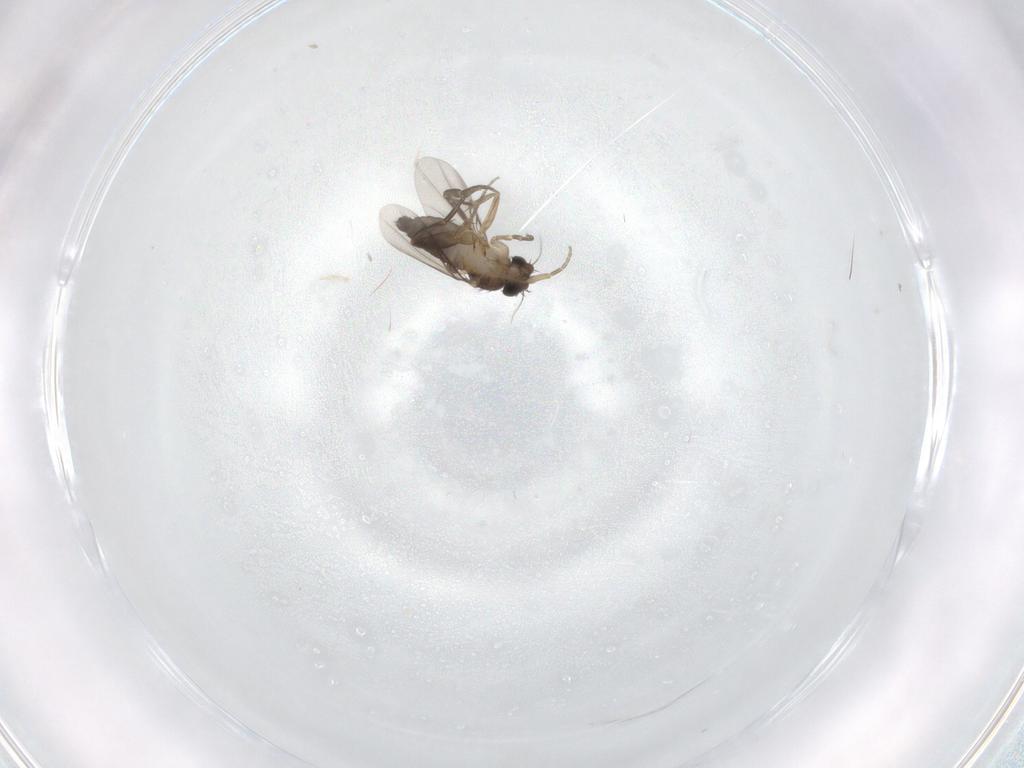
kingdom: Animalia
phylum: Arthropoda
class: Insecta
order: Diptera
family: Phoridae
